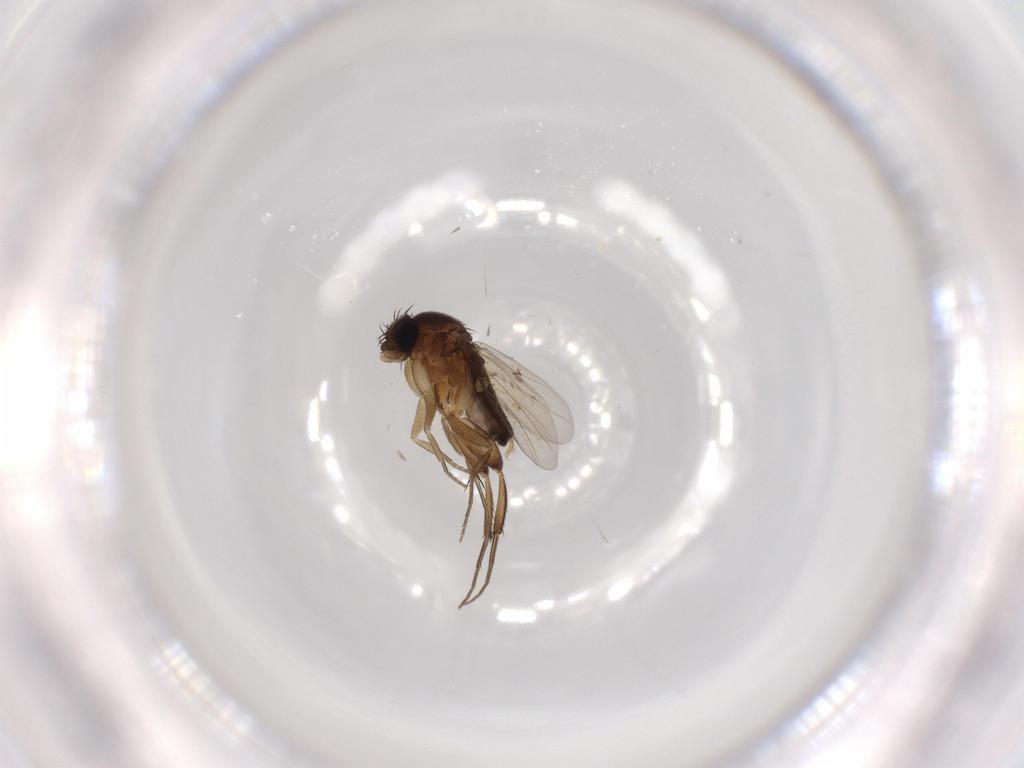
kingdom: Animalia
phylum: Arthropoda
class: Insecta
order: Diptera
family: Phoridae
